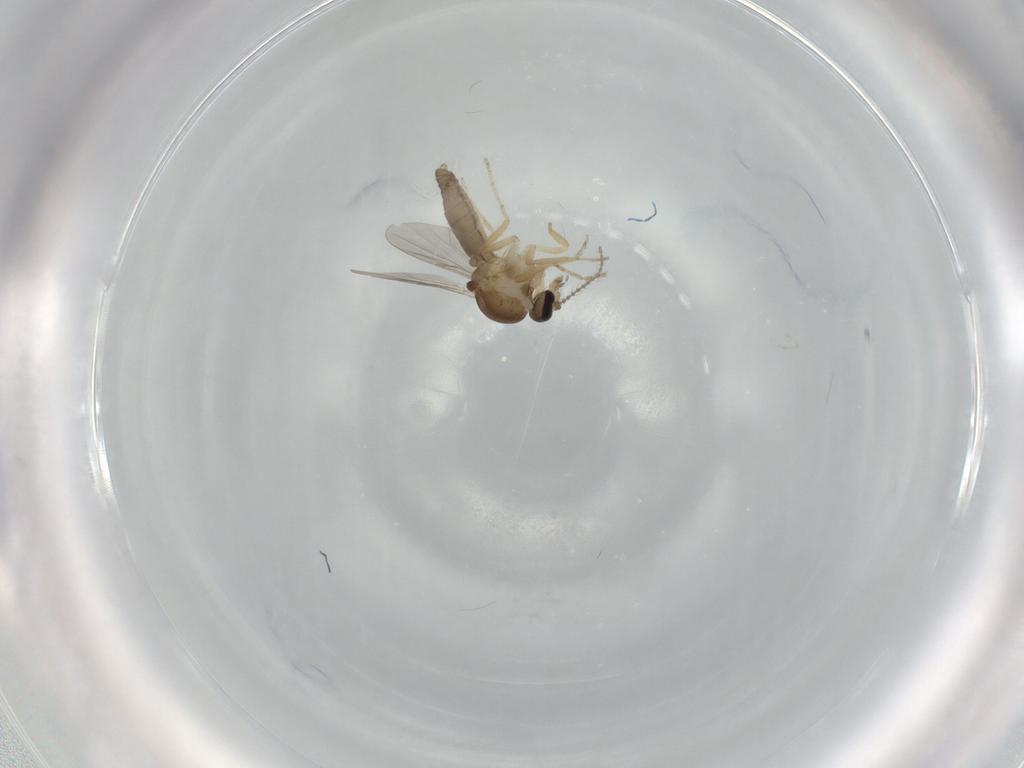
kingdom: Animalia
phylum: Arthropoda
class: Insecta
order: Diptera
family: Ceratopogonidae
